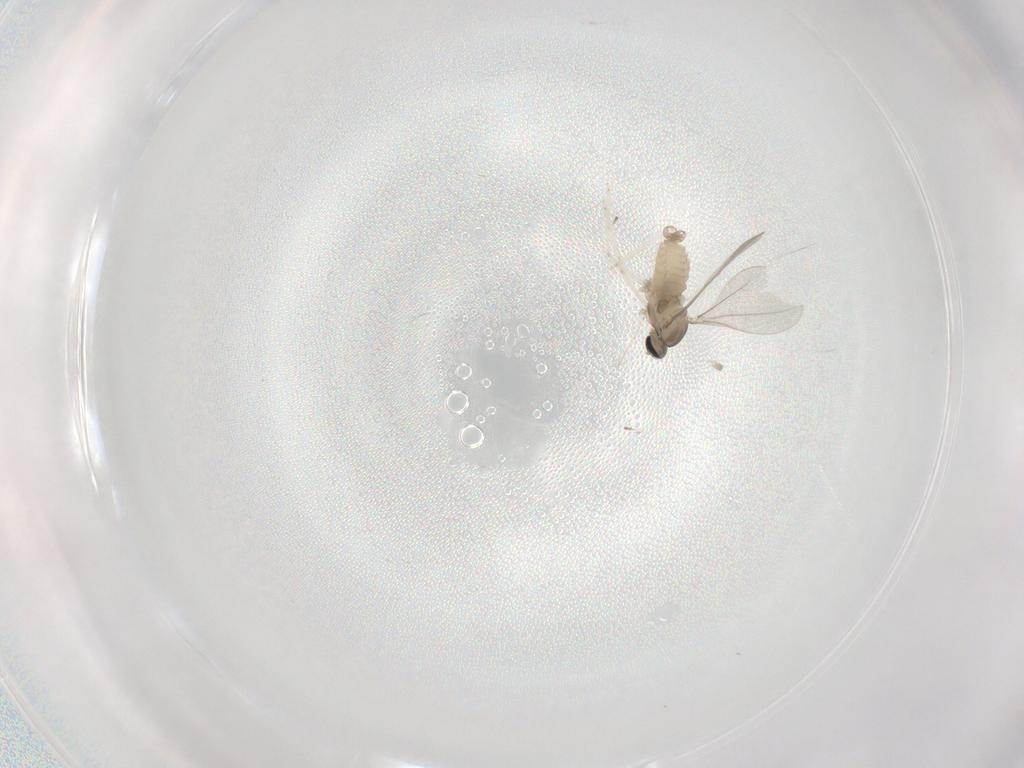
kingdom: Animalia
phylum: Arthropoda
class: Insecta
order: Diptera
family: Cecidomyiidae
